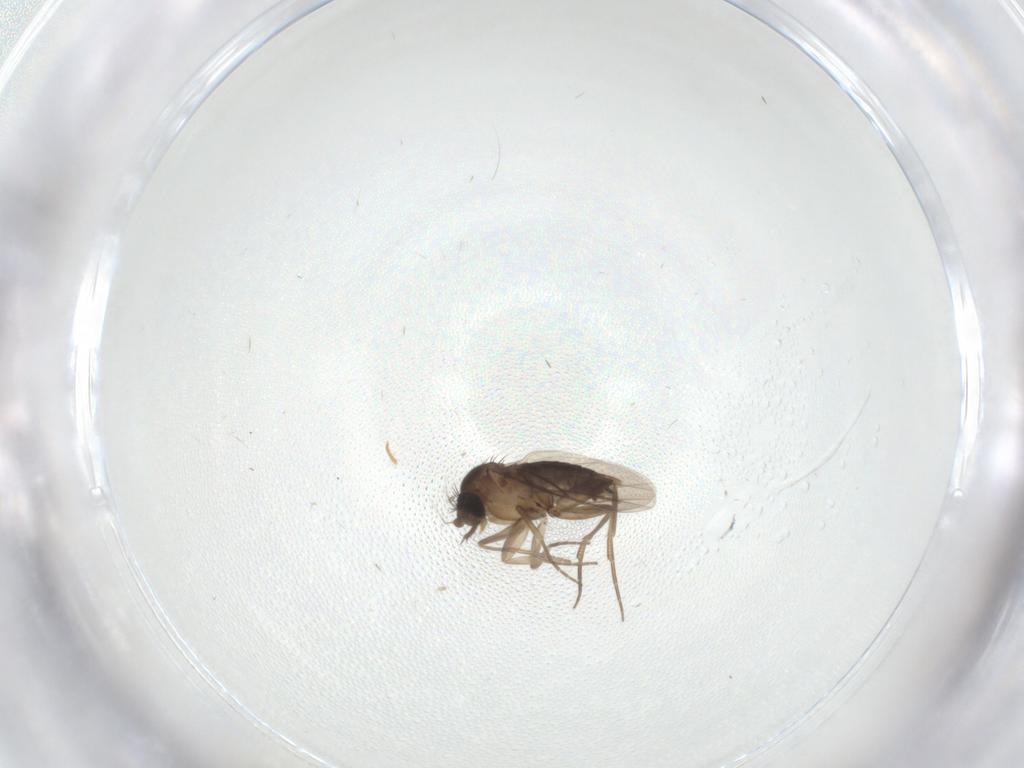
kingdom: Animalia
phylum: Arthropoda
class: Insecta
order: Diptera
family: Phoridae
